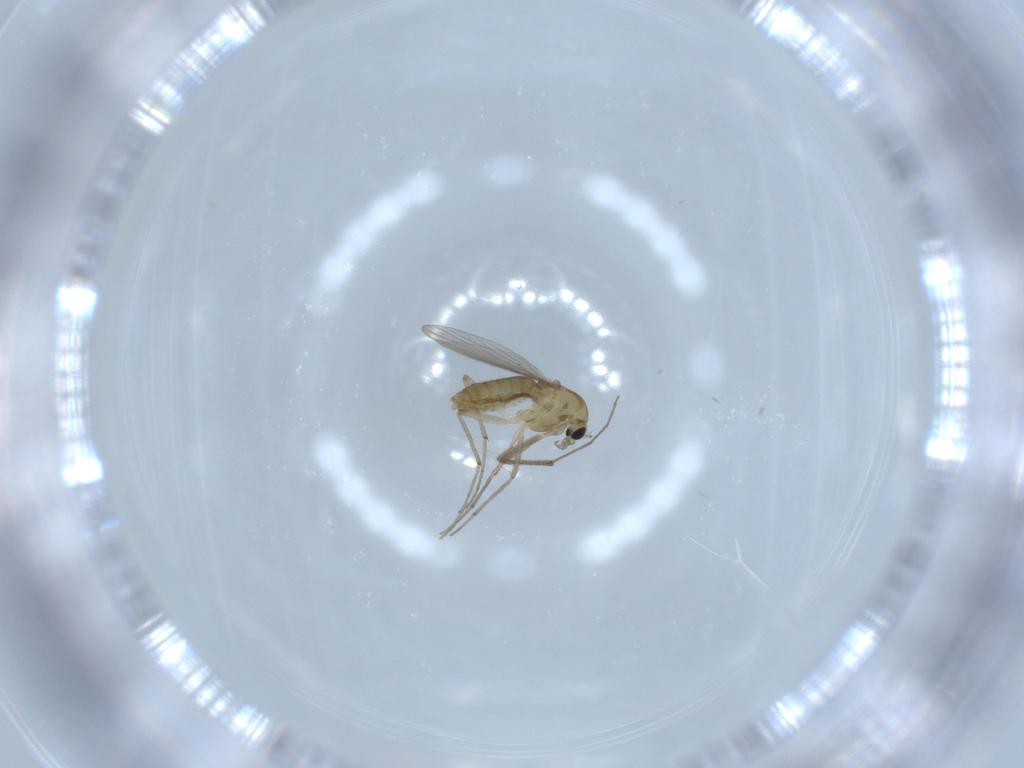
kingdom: Animalia
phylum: Arthropoda
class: Insecta
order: Diptera
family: Chironomidae
